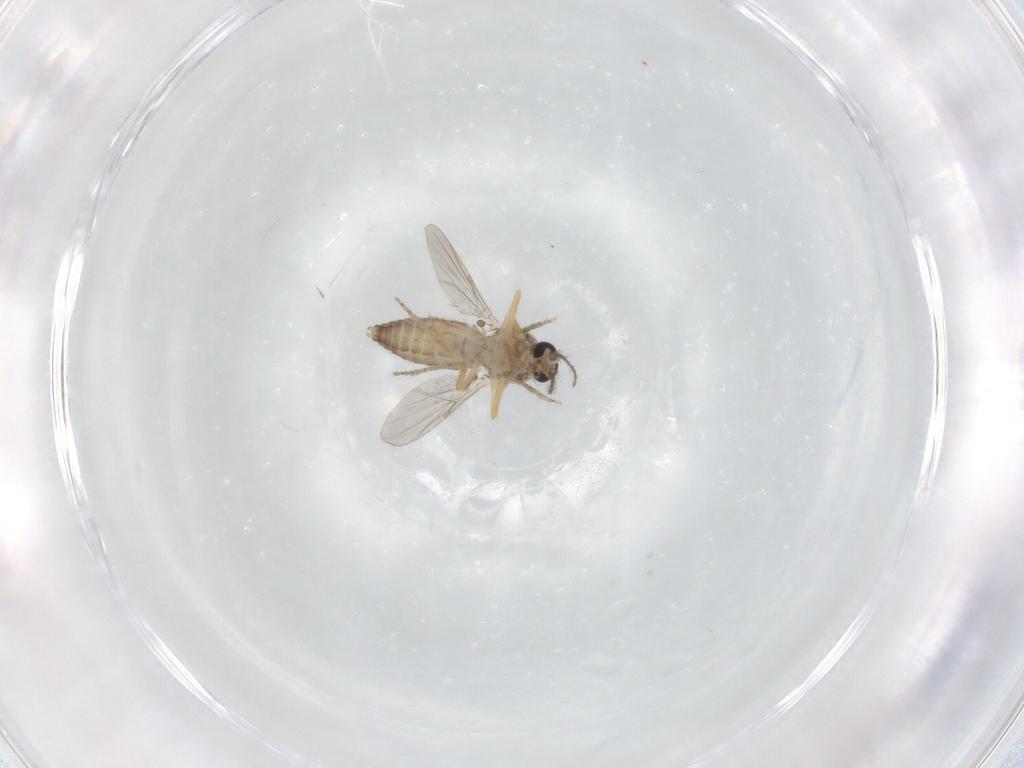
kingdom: Animalia
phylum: Arthropoda
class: Insecta
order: Diptera
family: Ceratopogonidae
